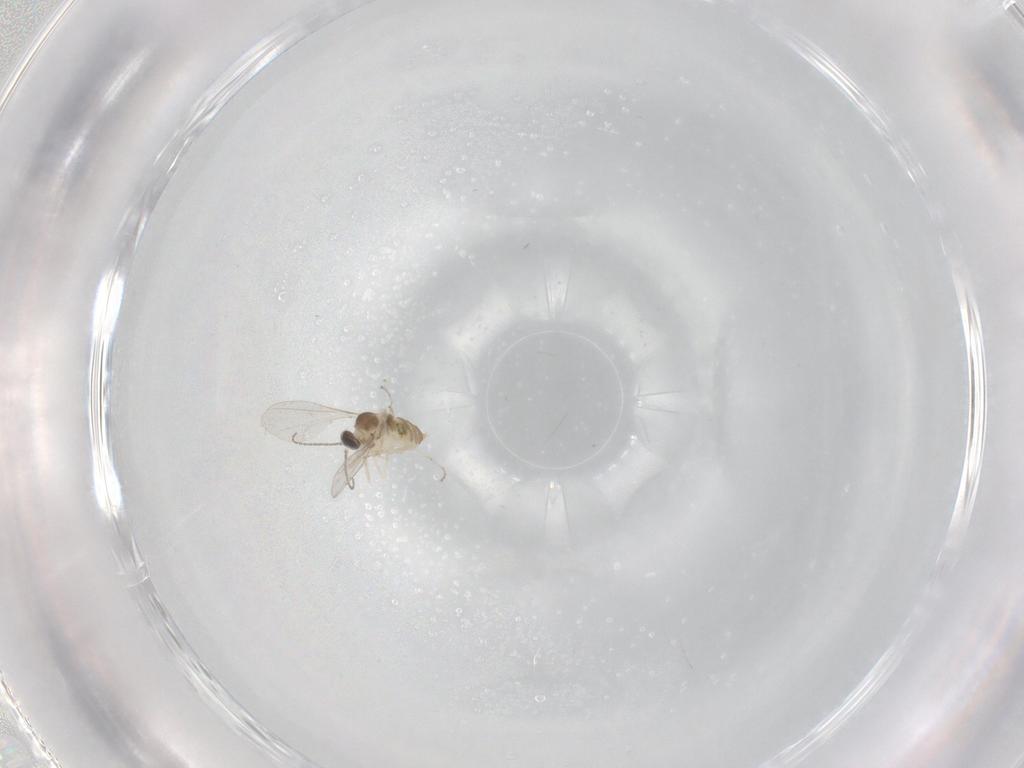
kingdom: Animalia
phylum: Arthropoda
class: Insecta
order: Diptera
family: Cecidomyiidae
